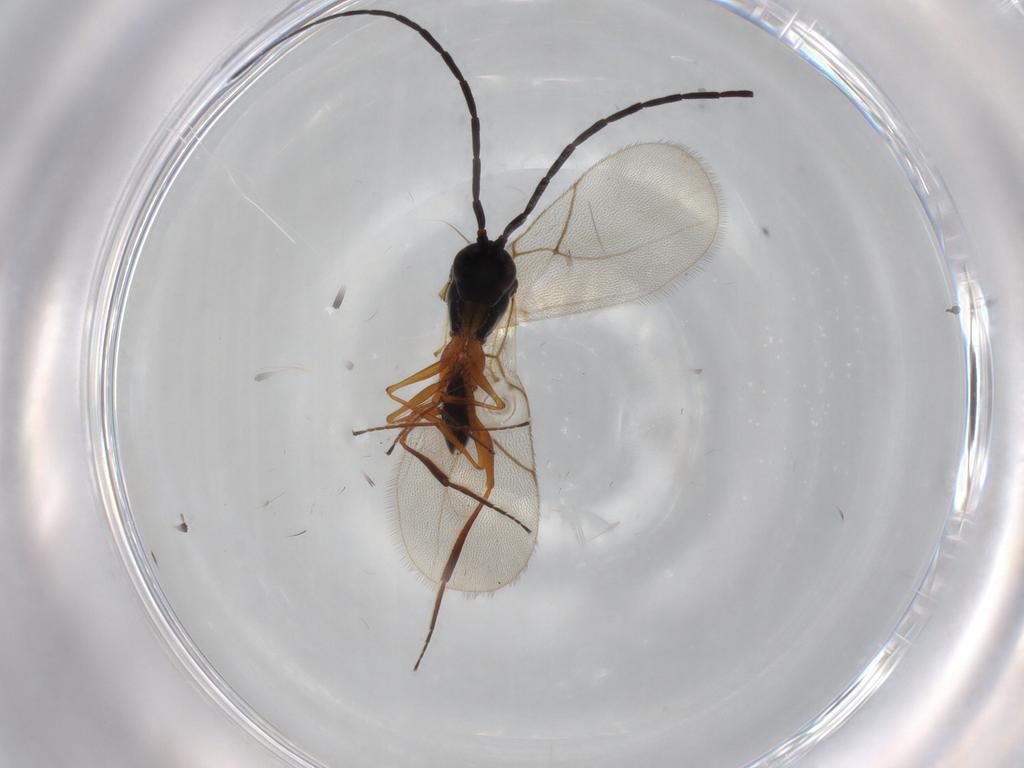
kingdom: Animalia
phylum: Arthropoda
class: Insecta
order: Hymenoptera
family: Figitidae
